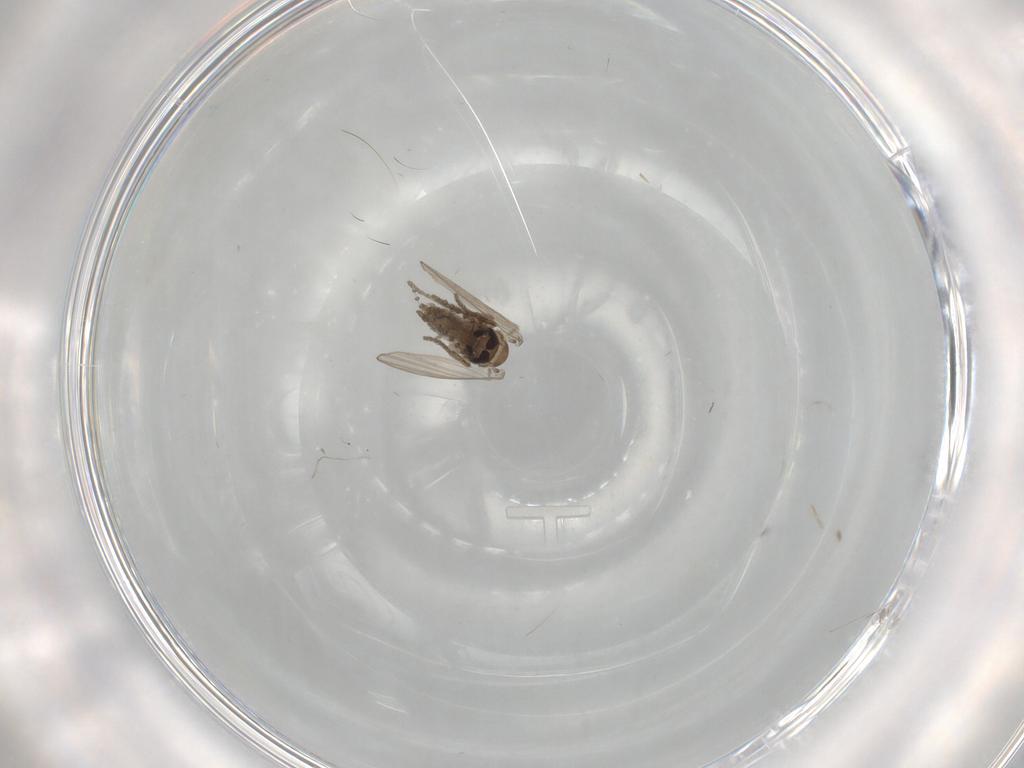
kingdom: Animalia
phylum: Arthropoda
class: Insecta
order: Diptera
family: Psychodidae
